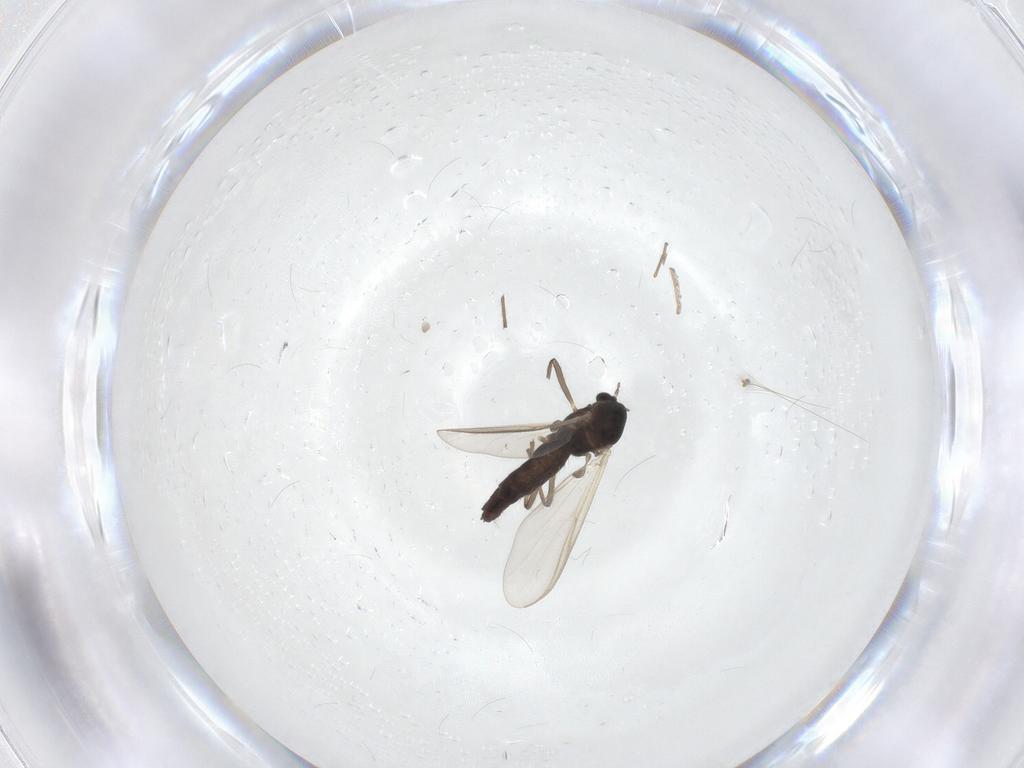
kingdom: Animalia
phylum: Arthropoda
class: Insecta
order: Diptera
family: Chironomidae
